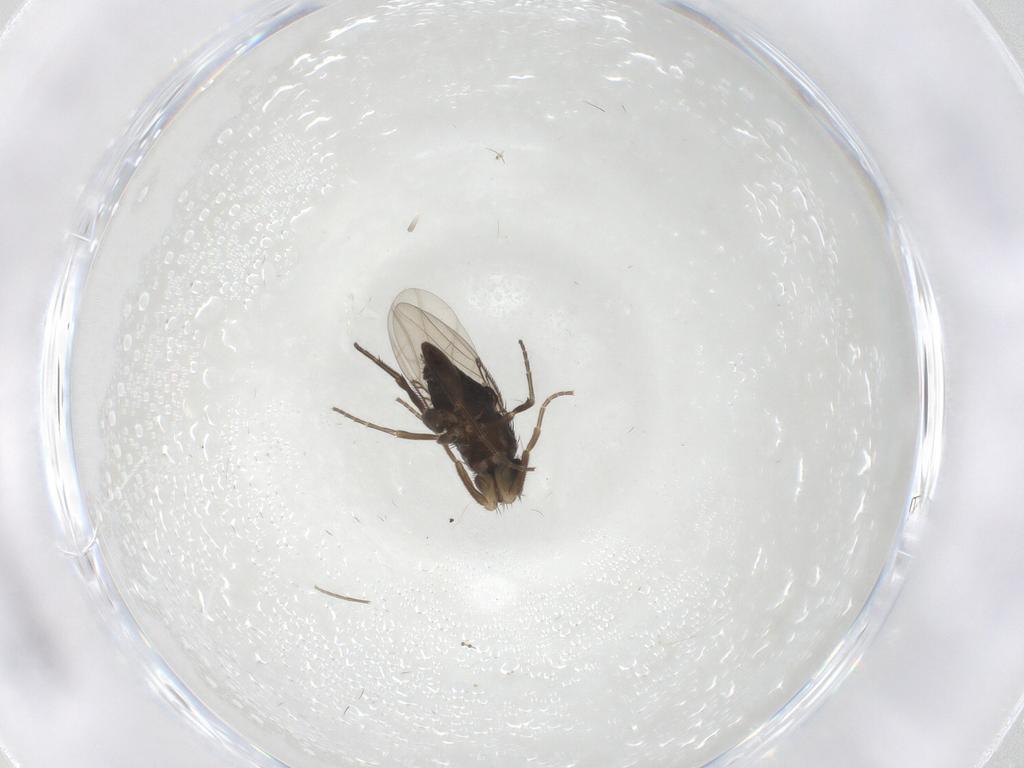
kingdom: Animalia
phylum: Arthropoda
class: Insecta
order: Diptera
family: Phoridae
